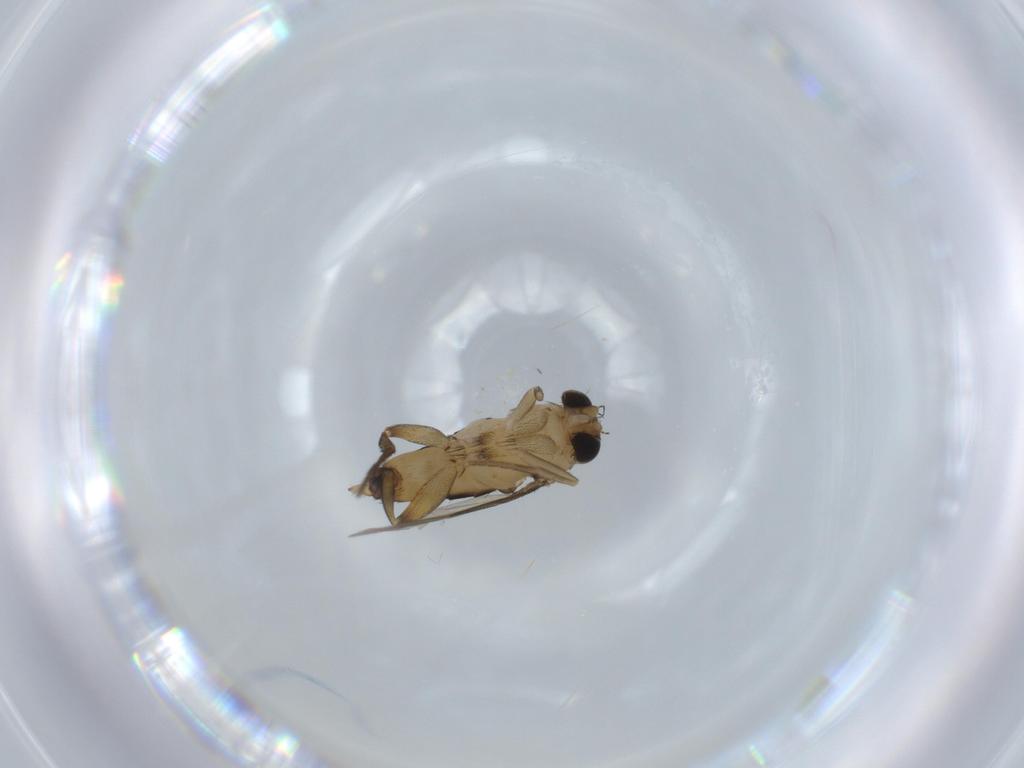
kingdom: Animalia
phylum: Arthropoda
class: Insecta
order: Diptera
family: Phoridae
